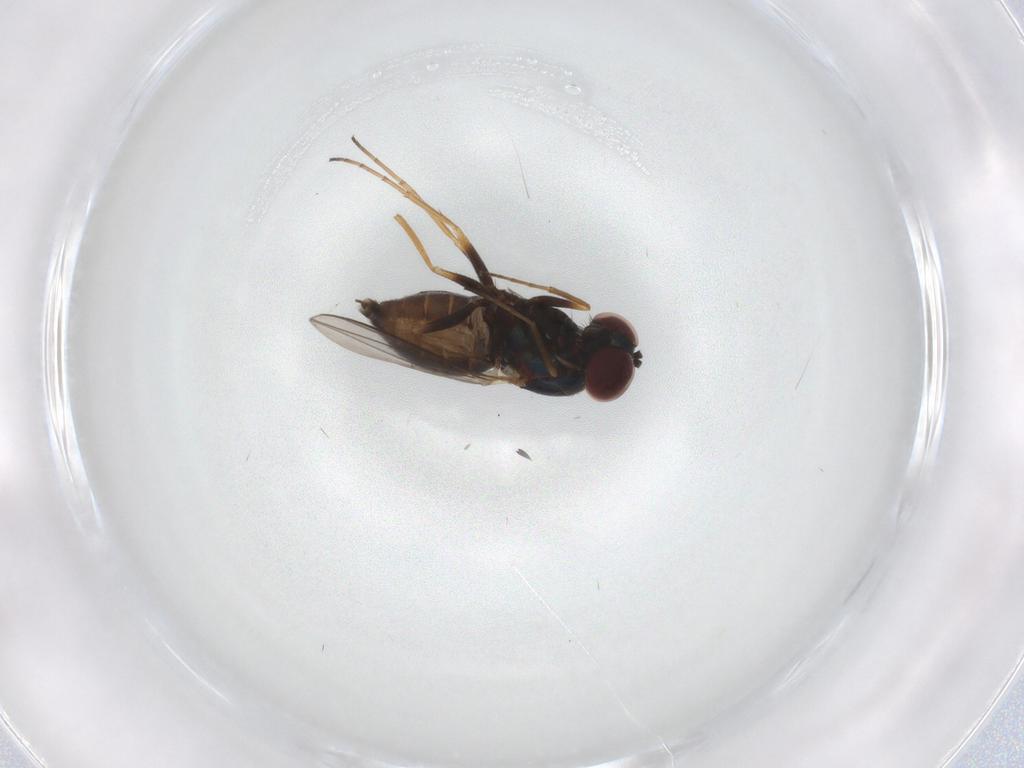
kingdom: Animalia
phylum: Arthropoda
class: Insecta
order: Diptera
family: Dolichopodidae
